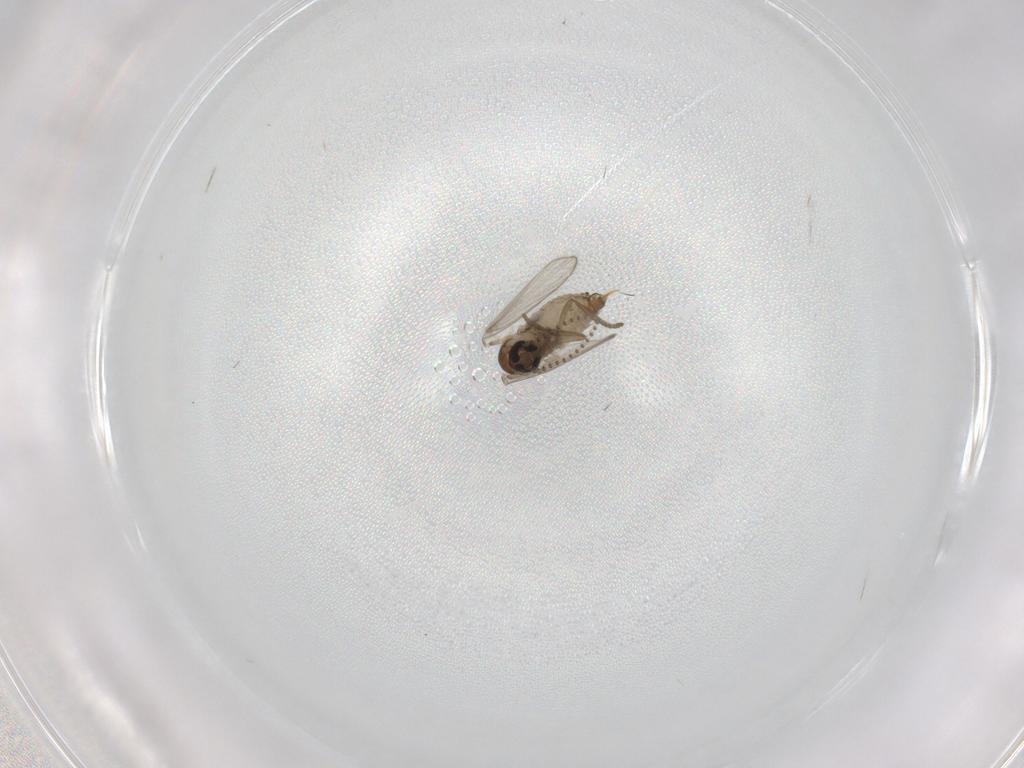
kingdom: Animalia
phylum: Arthropoda
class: Insecta
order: Diptera
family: Psychodidae
